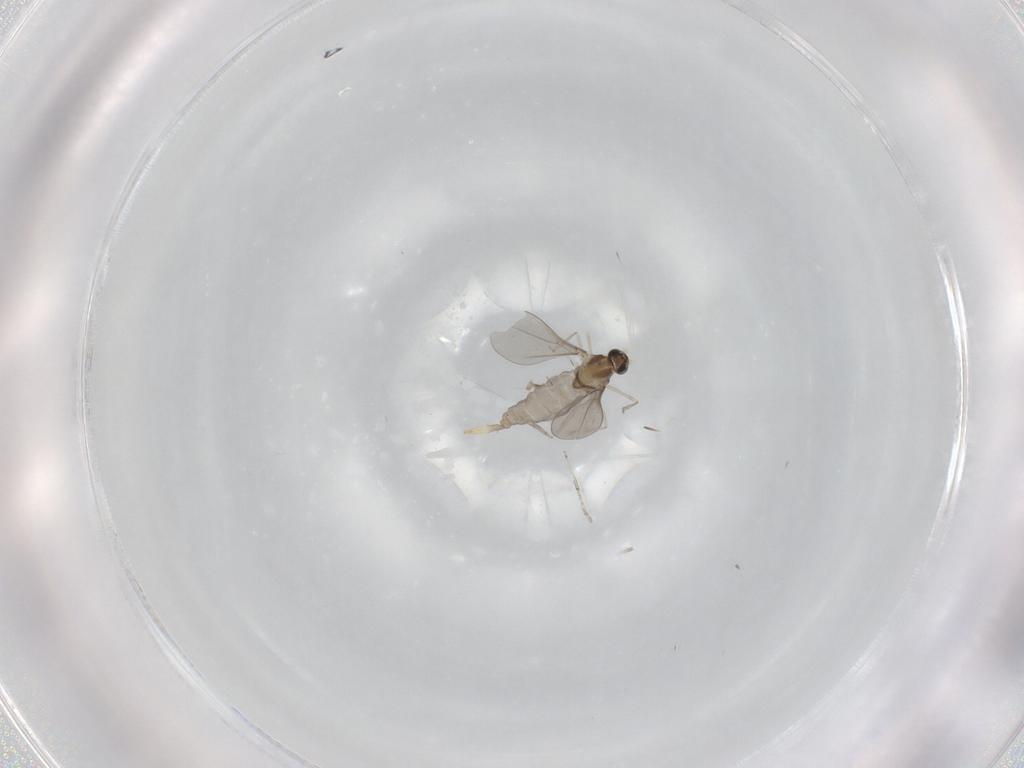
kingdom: Animalia
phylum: Arthropoda
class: Insecta
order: Diptera
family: Cecidomyiidae
